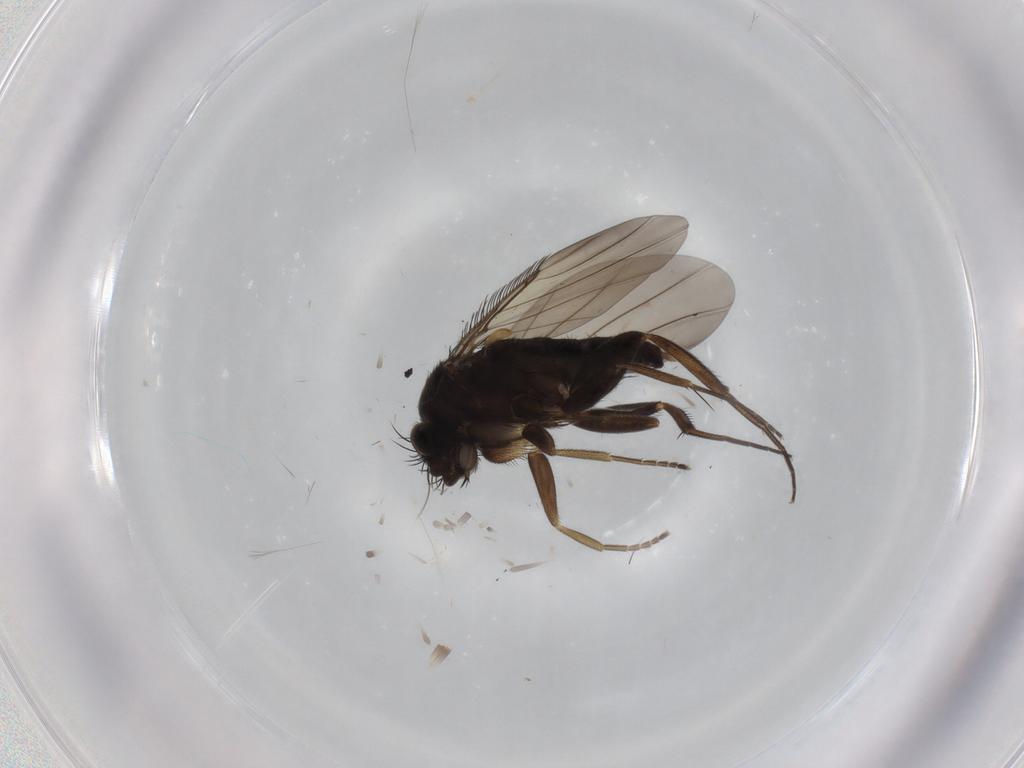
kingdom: Animalia
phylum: Arthropoda
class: Insecta
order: Diptera
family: Phoridae
